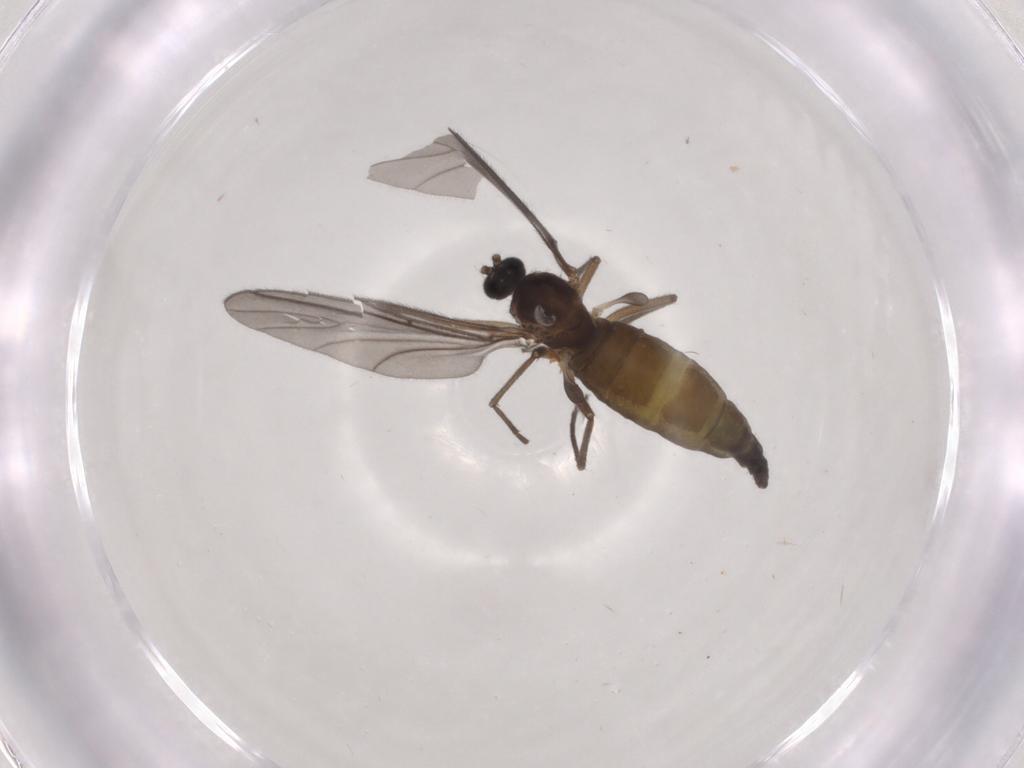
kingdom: Animalia
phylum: Arthropoda
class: Insecta
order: Diptera
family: Sciaridae
